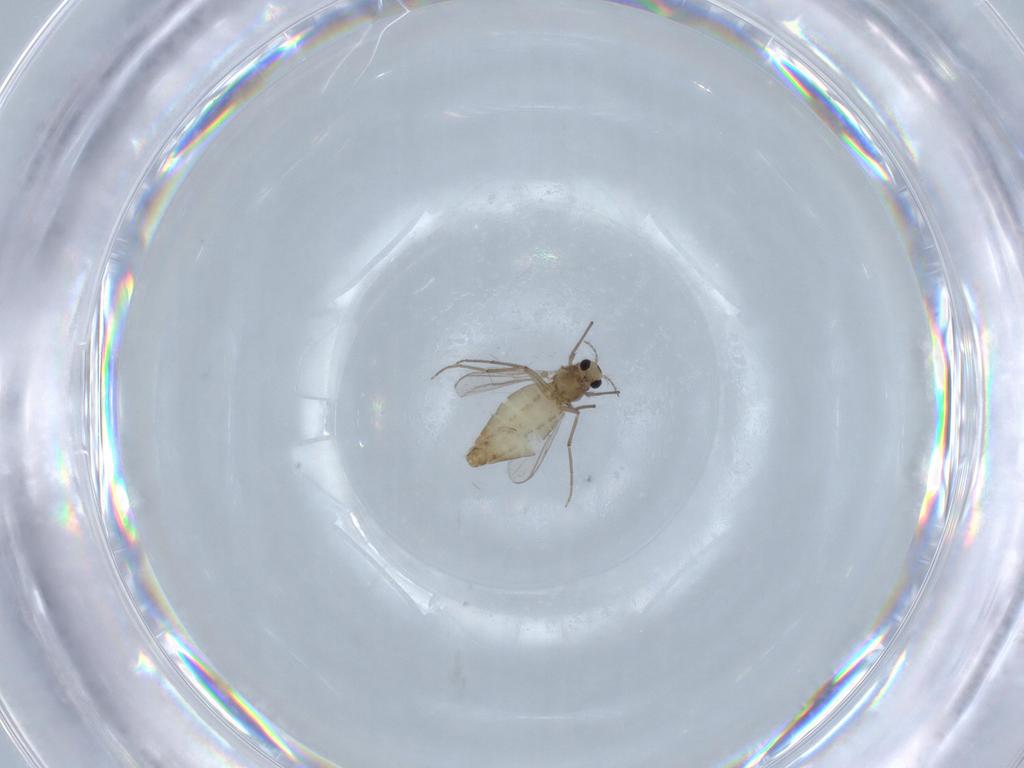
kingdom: Animalia
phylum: Arthropoda
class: Insecta
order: Diptera
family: Chironomidae
